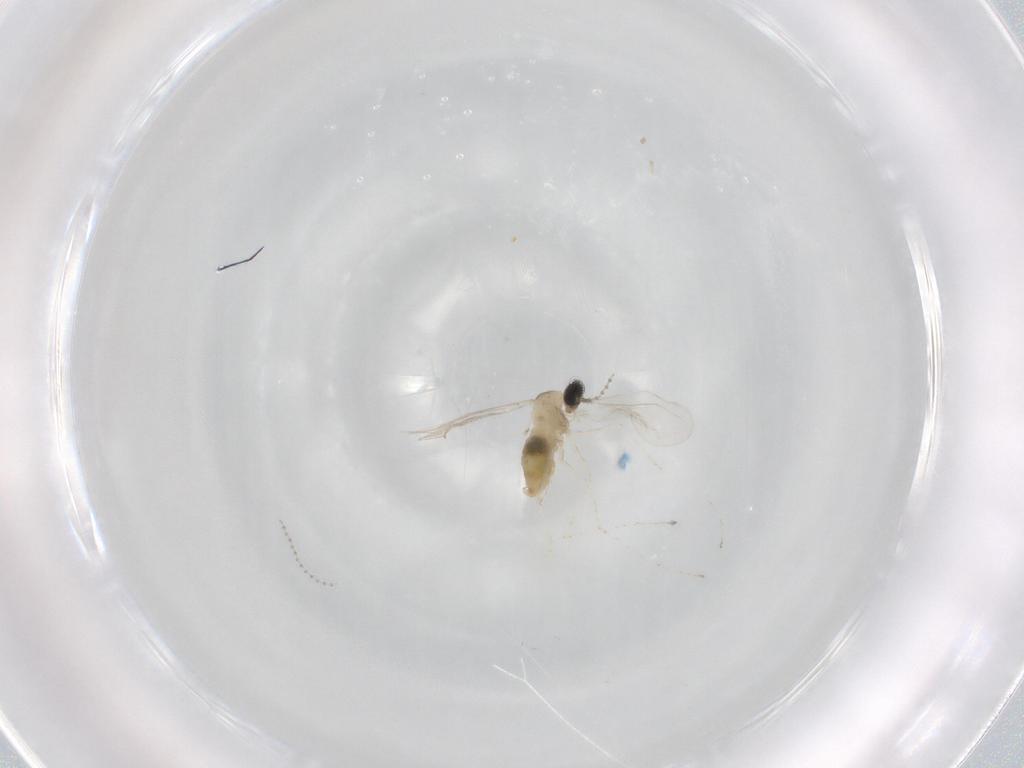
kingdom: Animalia
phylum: Arthropoda
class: Insecta
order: Diptera
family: Cecidomyiidae
